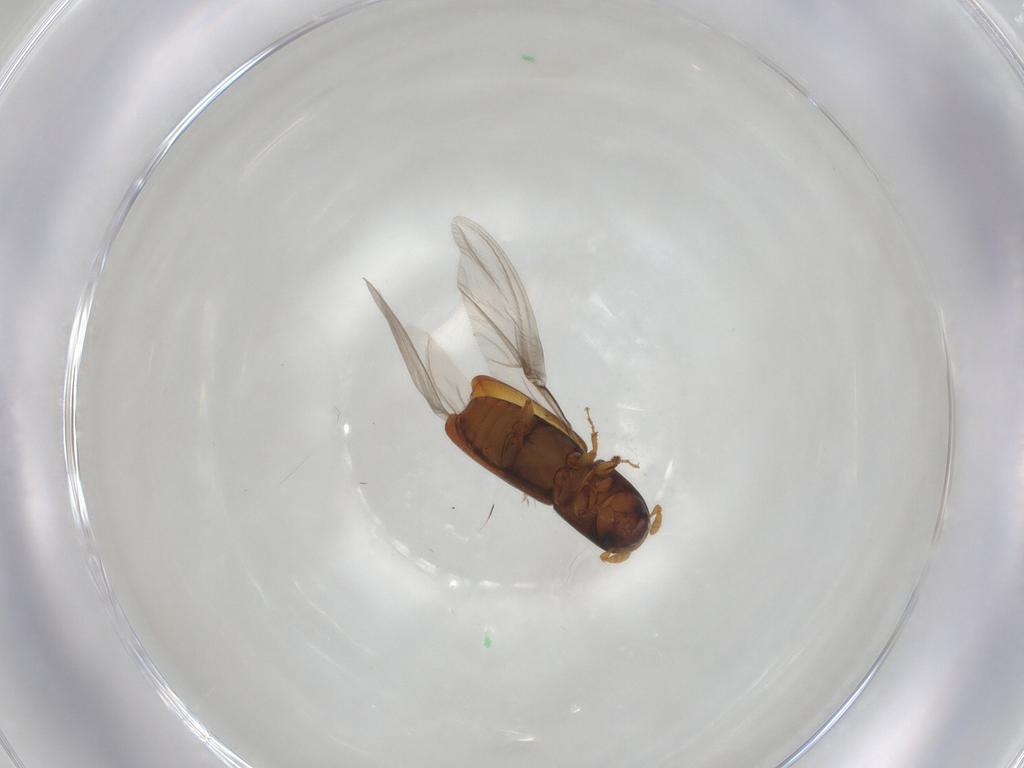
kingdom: Animalia
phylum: Arthropoda
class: Insecta
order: Coleoptera
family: Curculionidae
